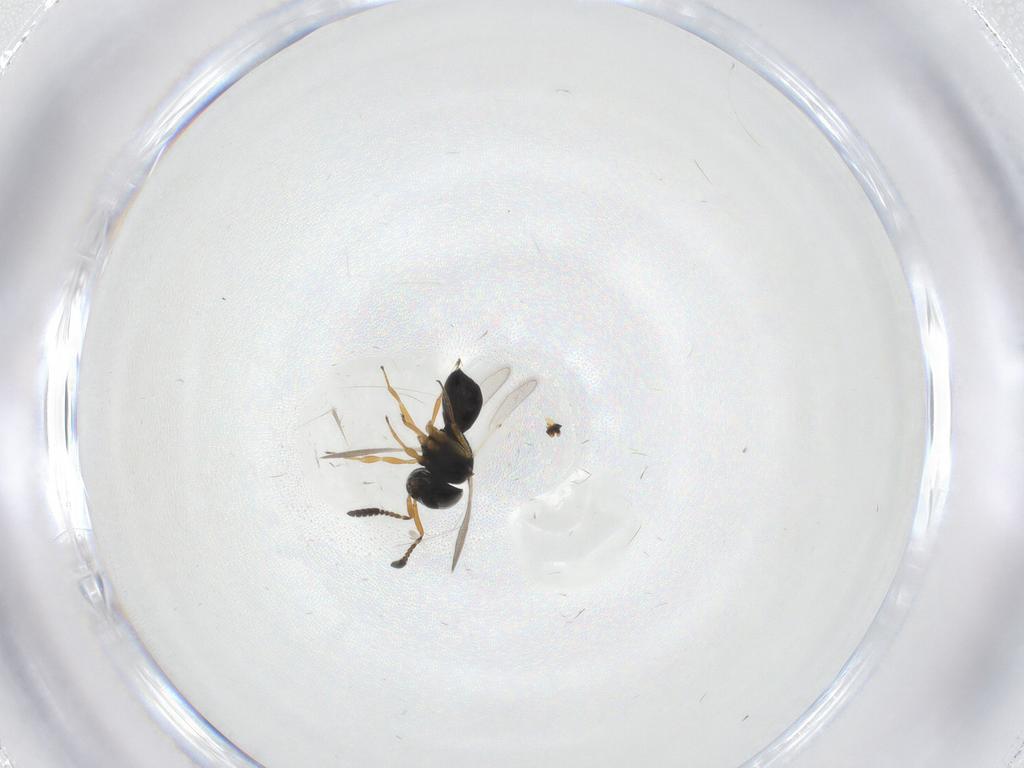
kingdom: Animalia
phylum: Arthropoda
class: Insecta
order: Hymenoptera
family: Scelionidae
